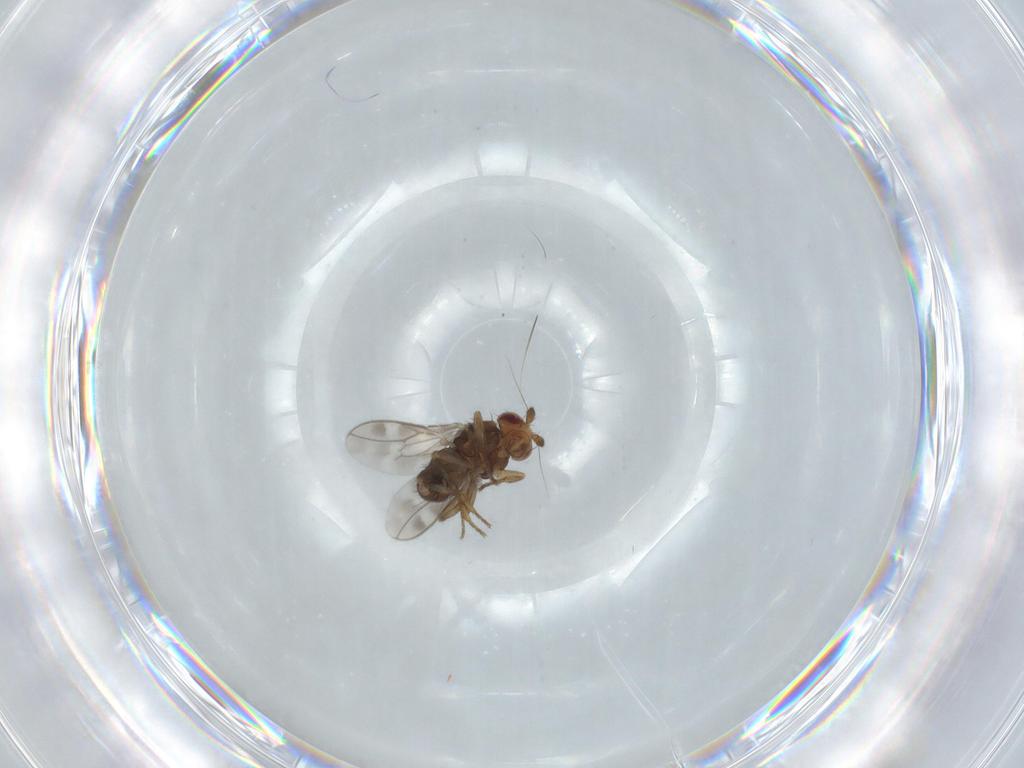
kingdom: Animalia
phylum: Arthropoda
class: Insecta
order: Diptera
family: Sphaeroceridae
